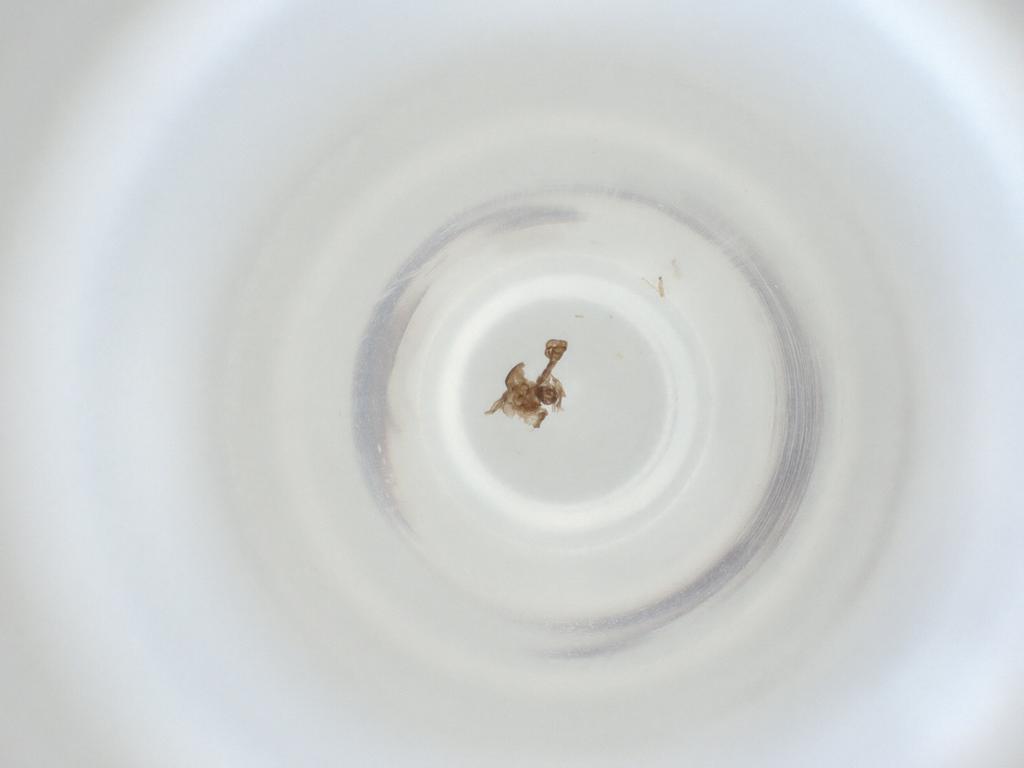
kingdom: Animalia
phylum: Arthropoda
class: Insecta
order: Diptera
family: Cecidomyiidae
